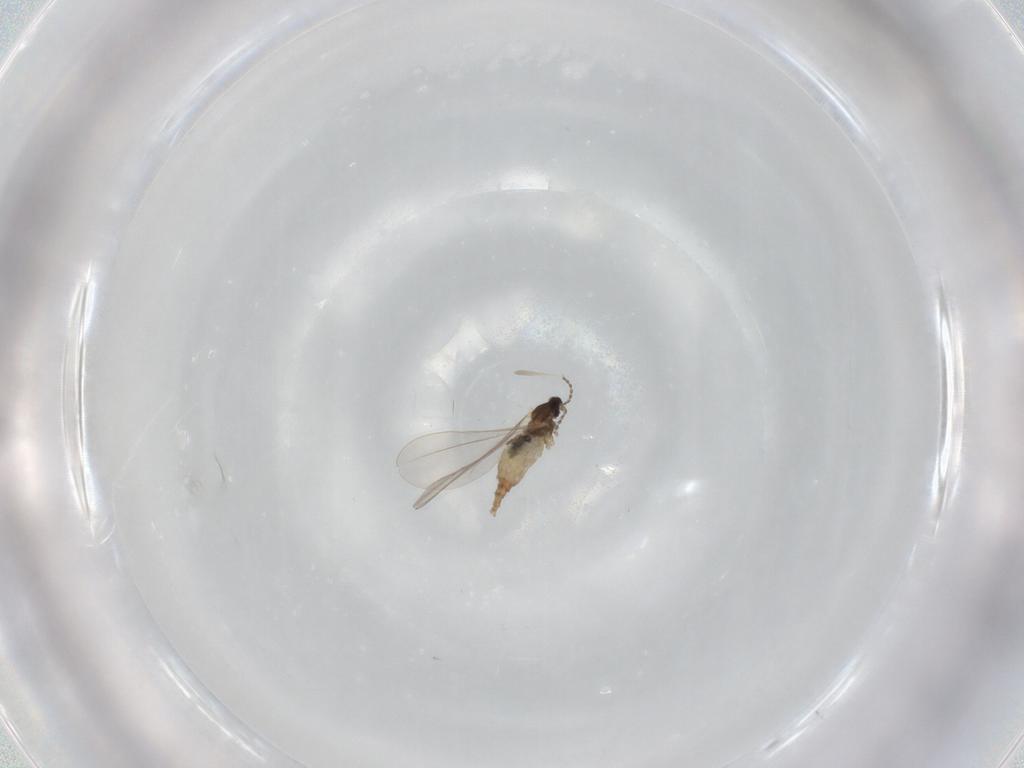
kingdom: Animalia
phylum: Arthropoda
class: Insecta
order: Diptera
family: Cecidomyiidae
